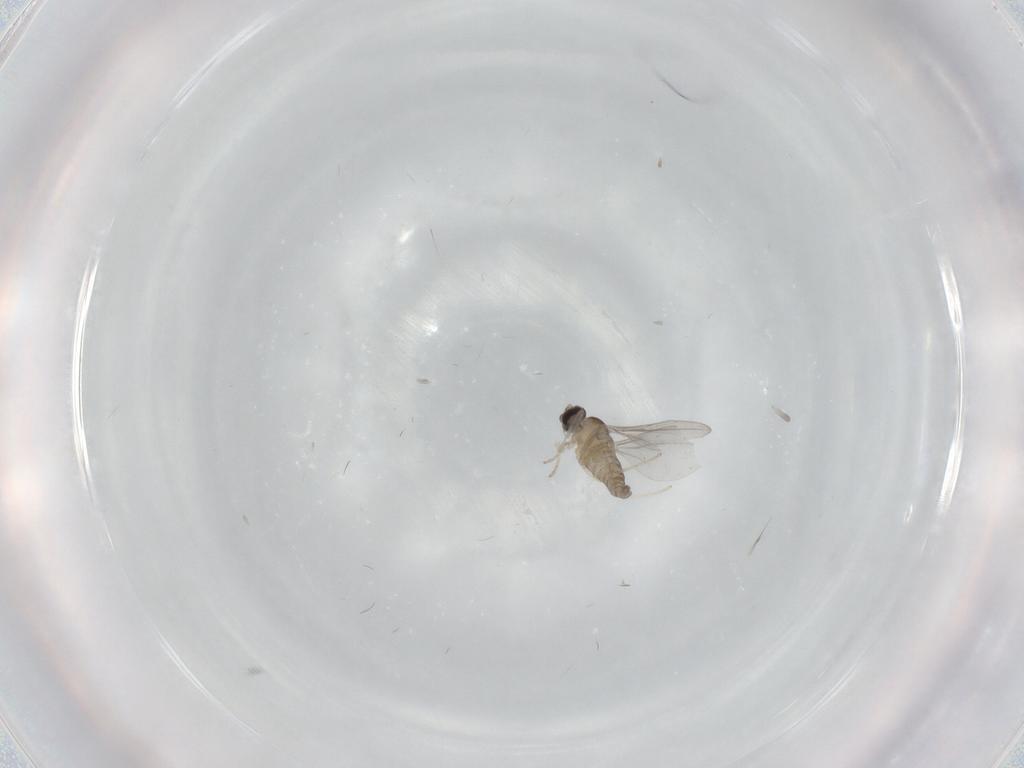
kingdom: Animalia
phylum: Arthropoda
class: Insecta
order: Diptera
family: Cecidomyiidae
